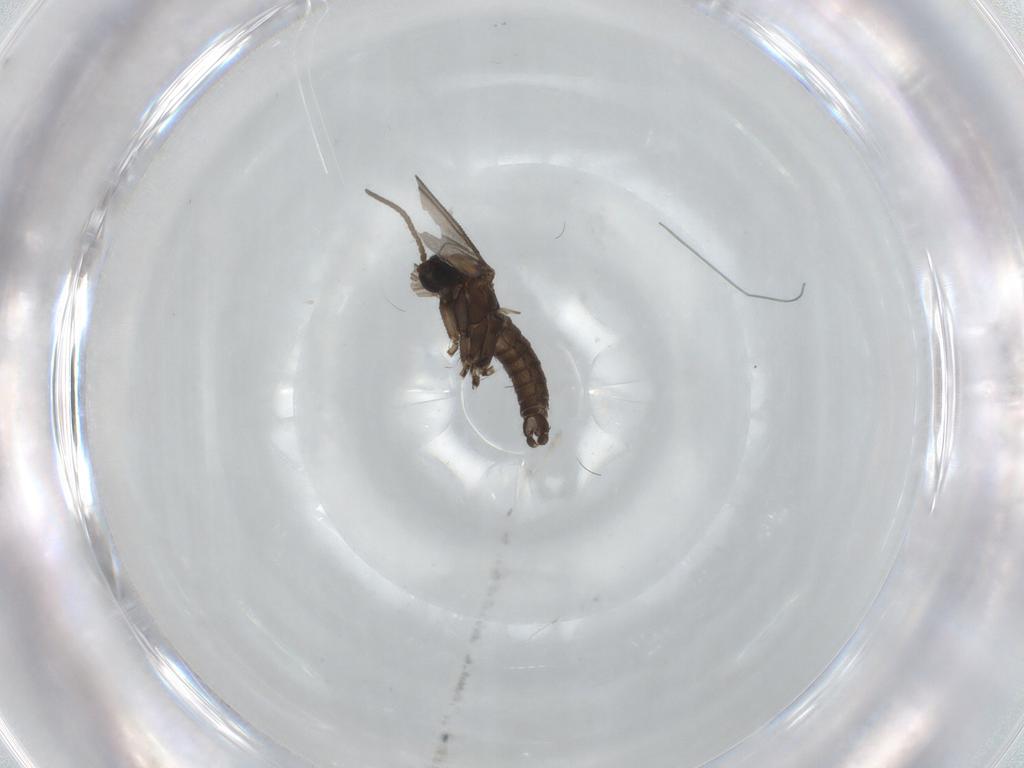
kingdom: Animalia
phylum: Arthropoda
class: Insecta
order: Diptera
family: Sciaridae
